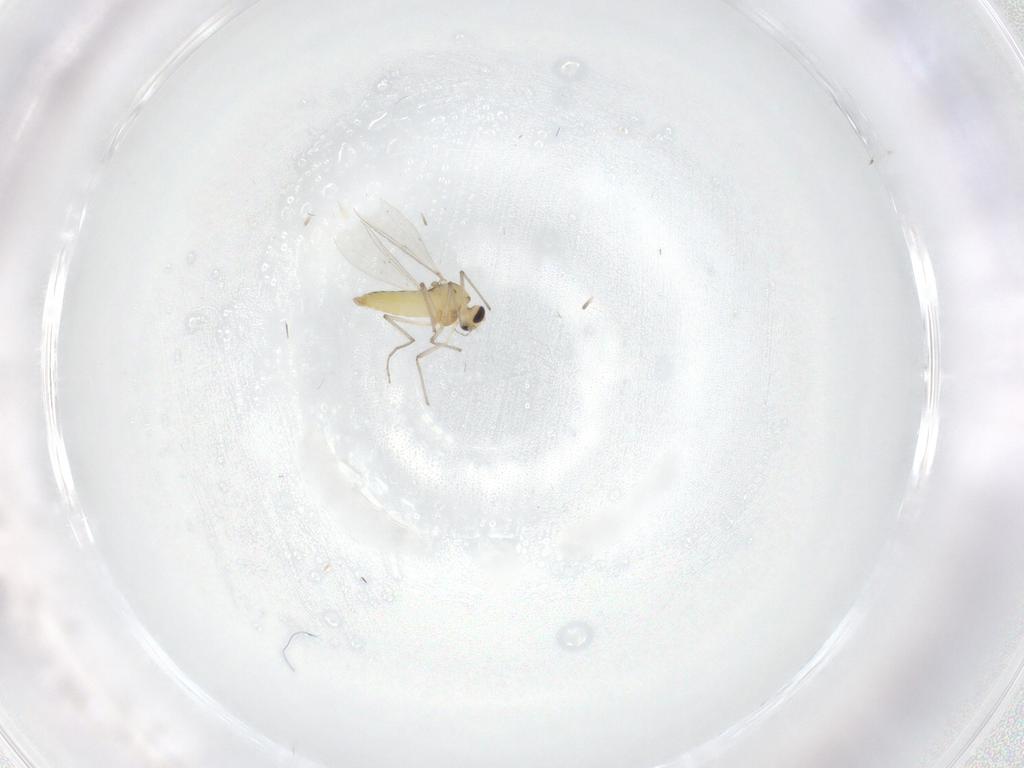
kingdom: Animalia
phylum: Arthropoda
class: Insecta
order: Diptera
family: Chironomidae
